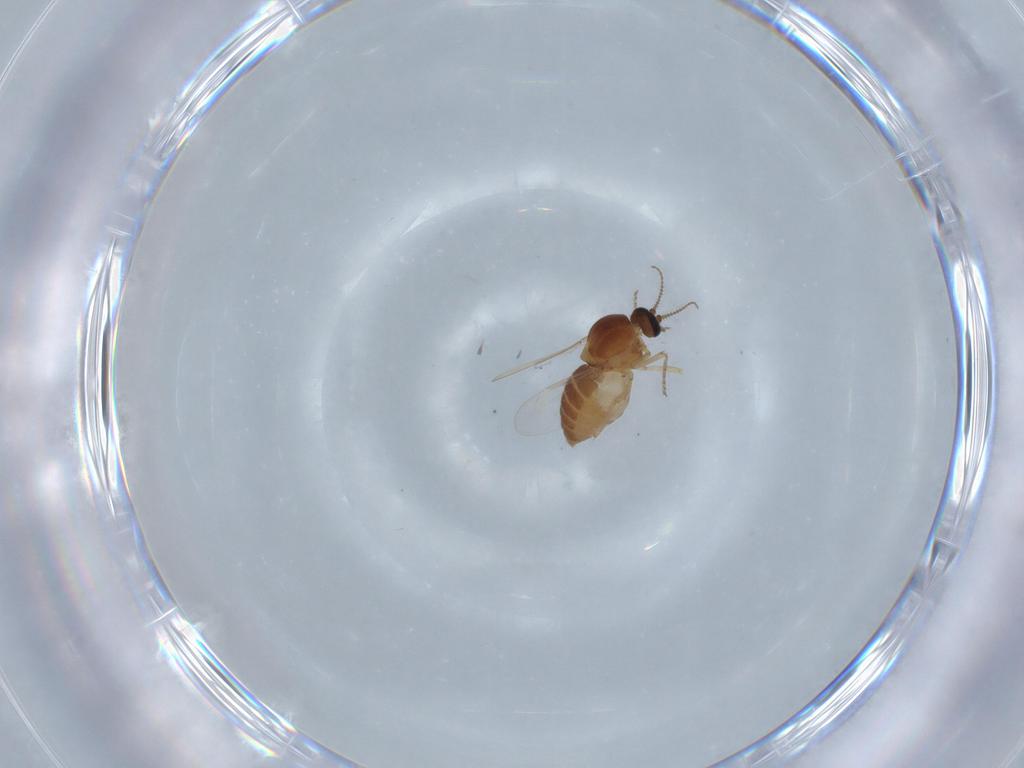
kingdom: Animalia
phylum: Arthropoda
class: Insecta
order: Diptera
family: Ceratopogonidae
